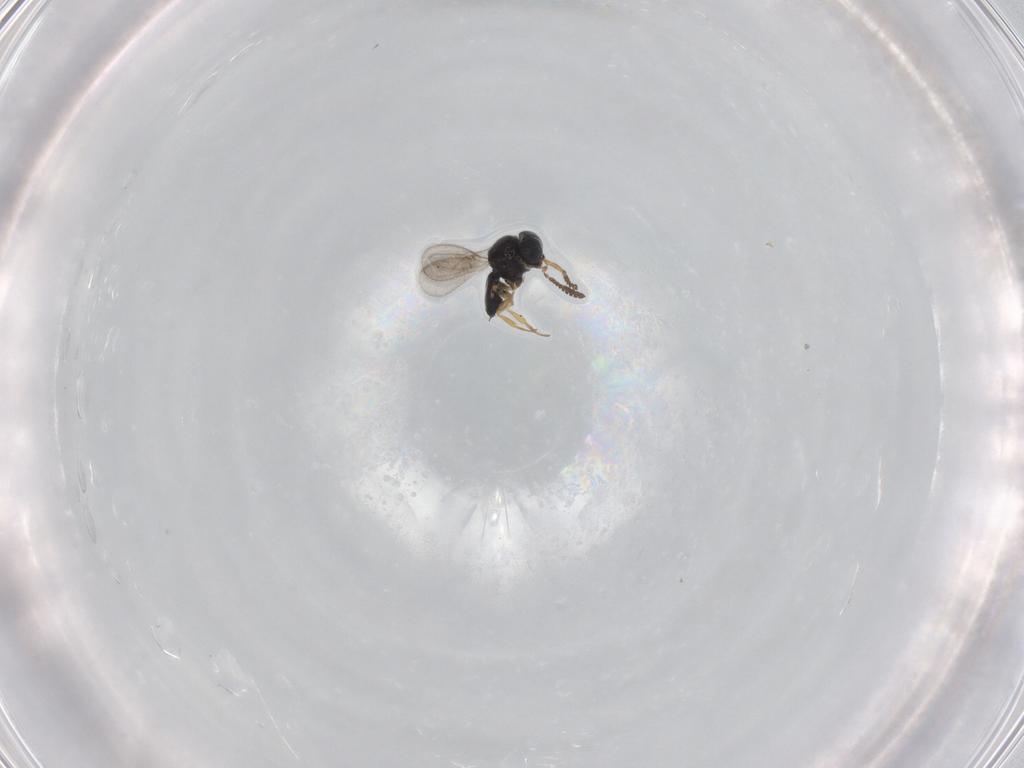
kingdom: Animalia
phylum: Arthropoda
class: Insecta
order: Hymenoptera
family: Scelionidae
